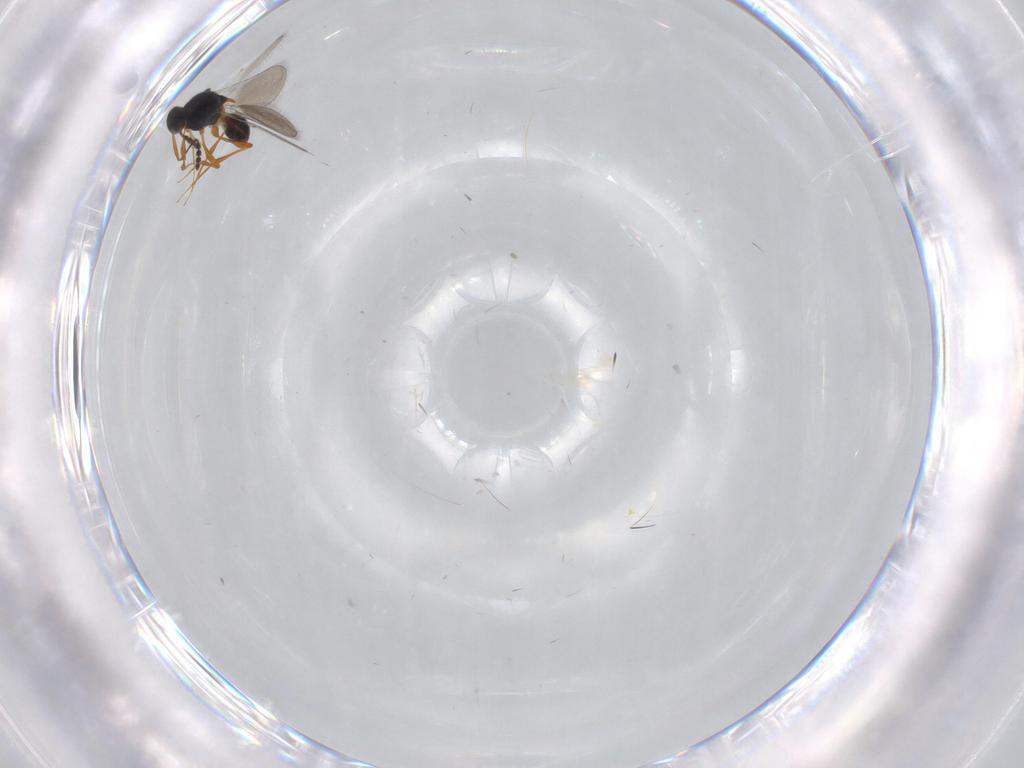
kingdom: Animalia
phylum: Arthropoda
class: Insecta
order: Hymenoptera
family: Platygastridae
